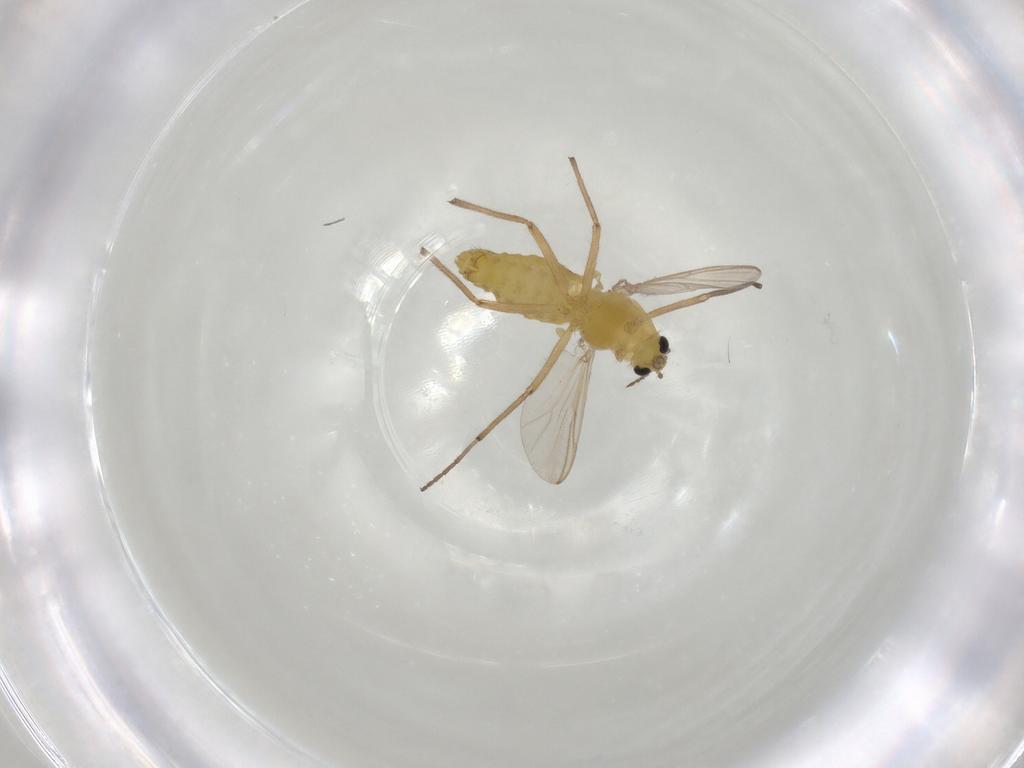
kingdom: Animalia
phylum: Arthropoda
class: Insecta
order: Diptera
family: Chironomidae
